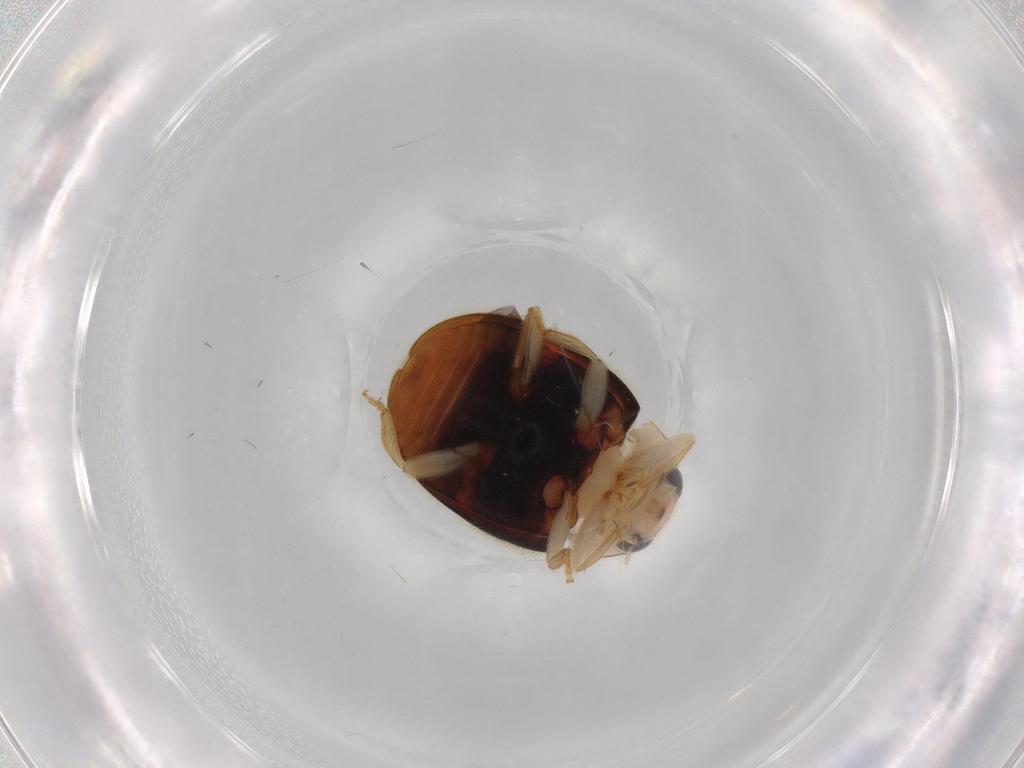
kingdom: Animalia
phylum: Arthropoda
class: Insecta
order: Coleoptera
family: Coccinellidae
